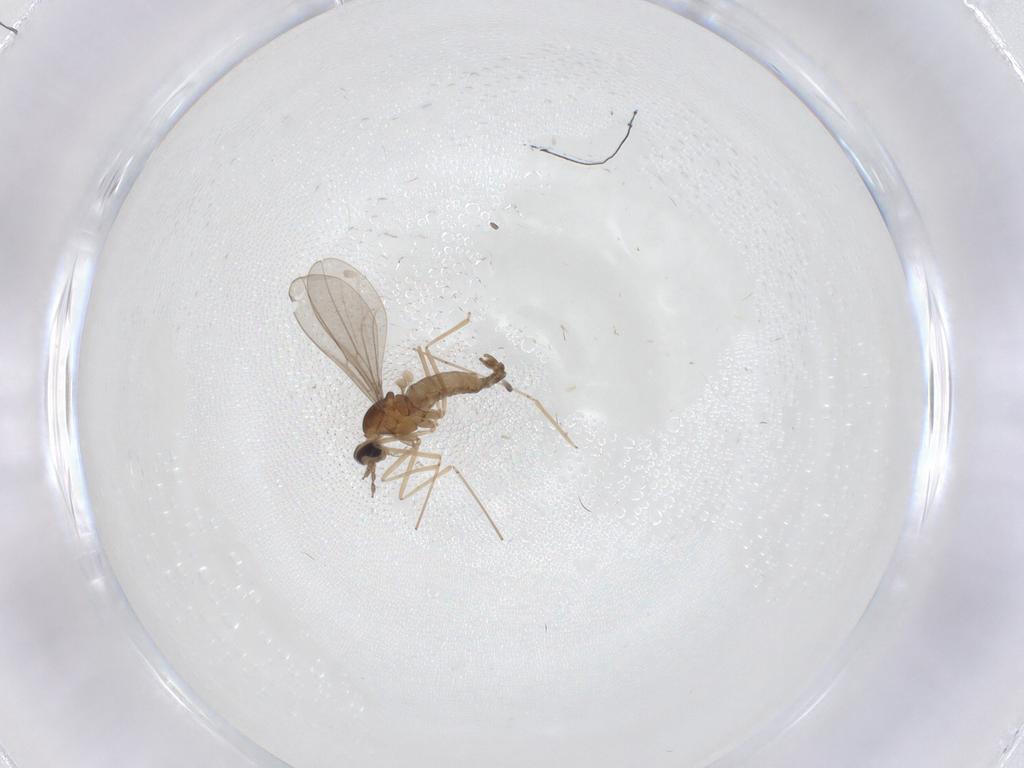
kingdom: Animalia
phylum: Arthropoda
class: Insecta
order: Diptera
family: Cecidomyiidae
